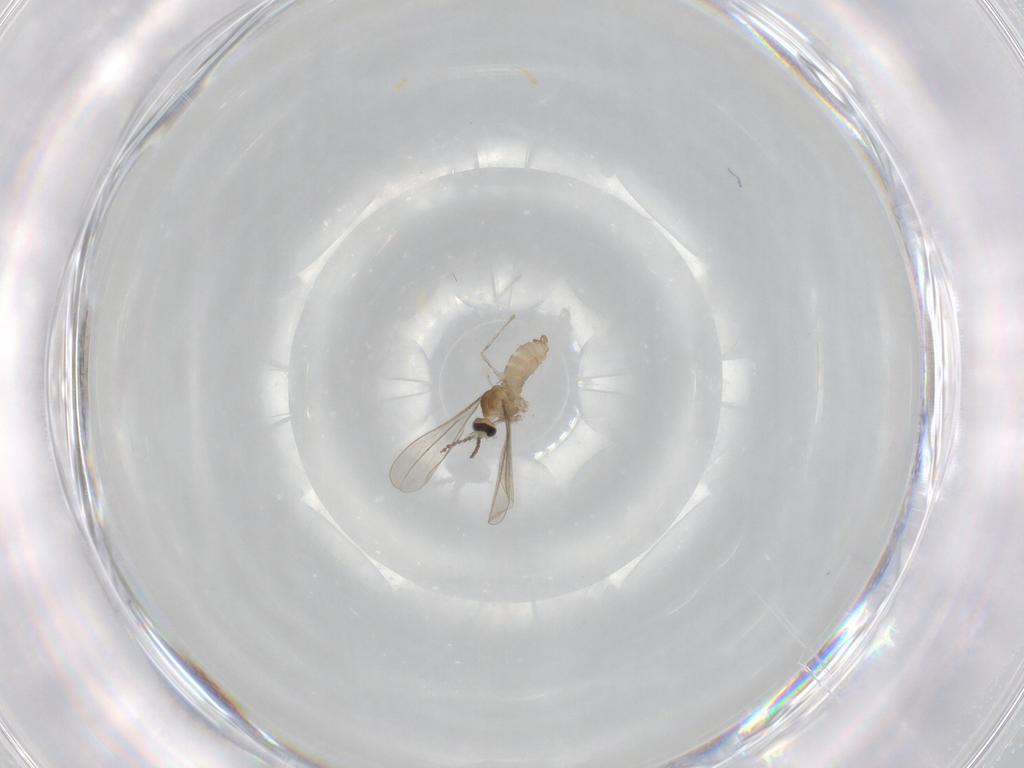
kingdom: Animalia
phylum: Arthropoda
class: Insecta
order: Diptera
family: Cecidomyiidae
